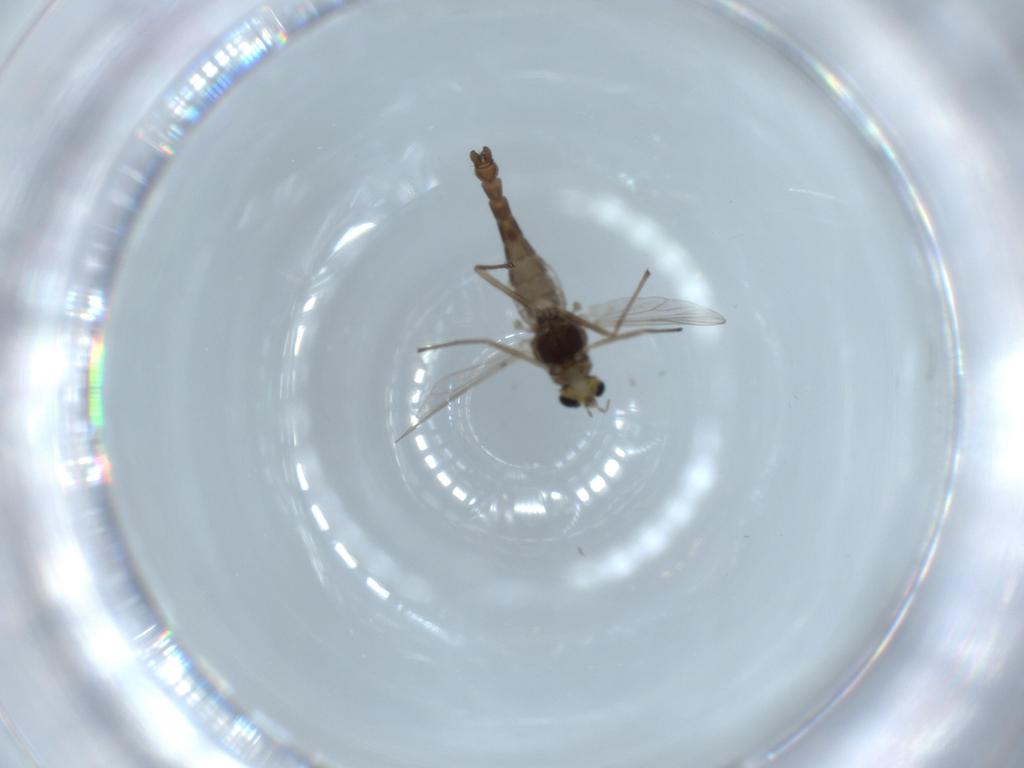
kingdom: Animalia
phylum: Arthropoda
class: Insecta
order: Diptera
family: Chironomidae
